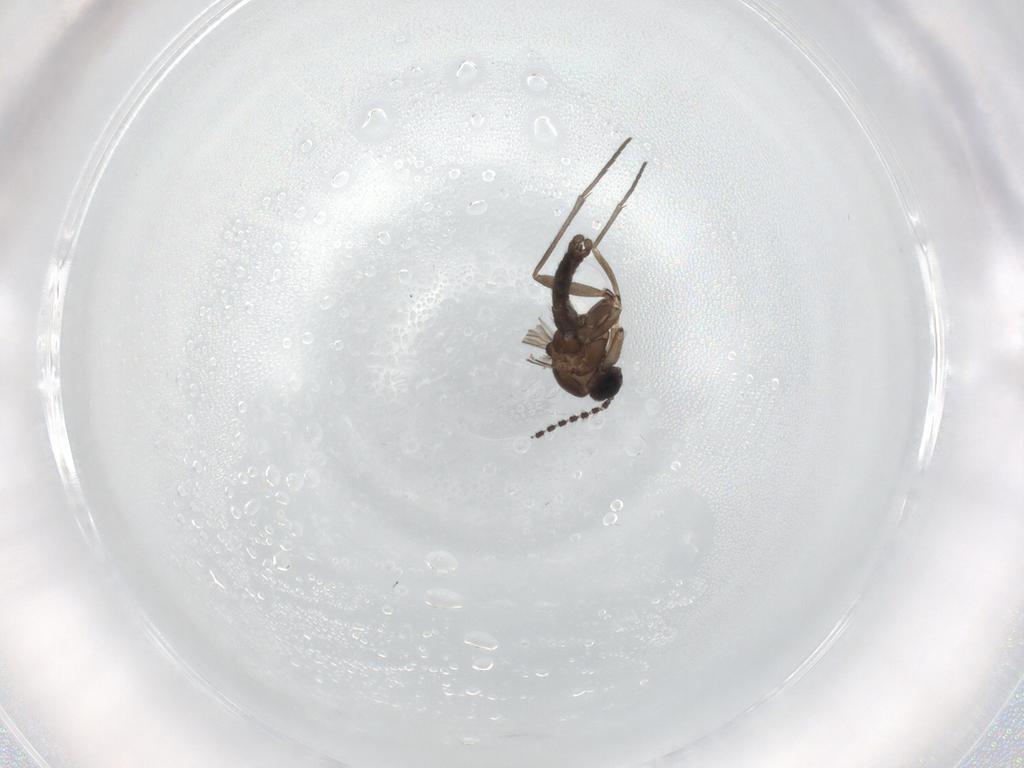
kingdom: Animalia
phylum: Arthropoda
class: Insecta
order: Diptera
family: Sciaridae
